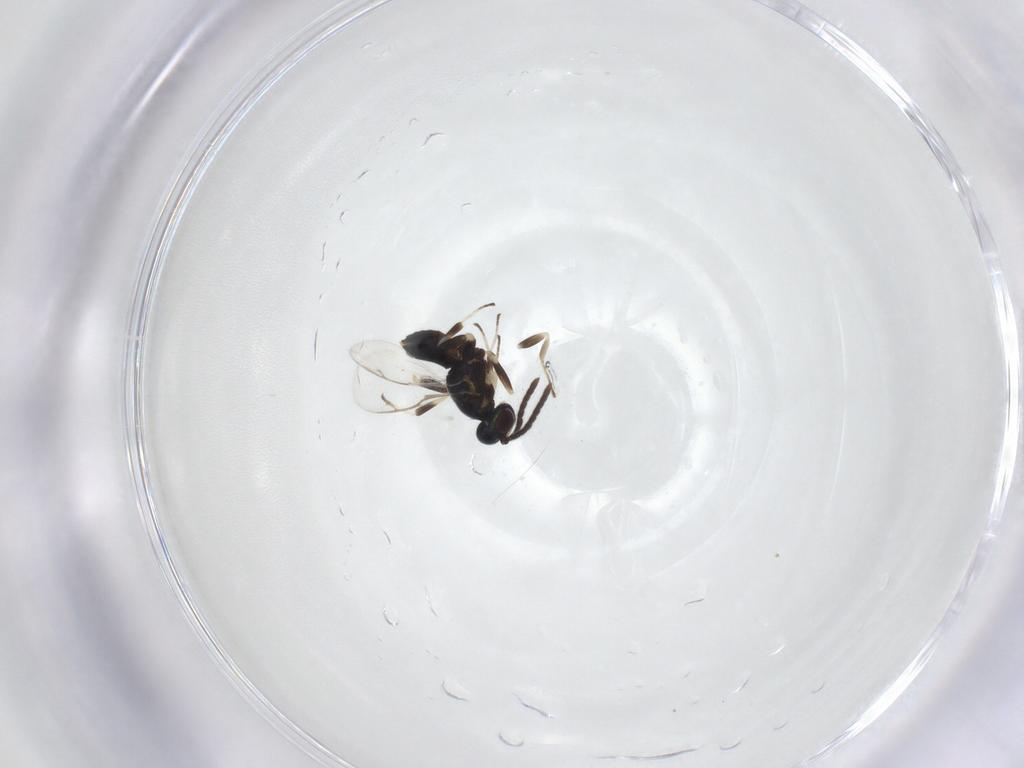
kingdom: Animalia
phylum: Arthropoda
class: Insecta
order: Hymenoptera
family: Eupelmidae
